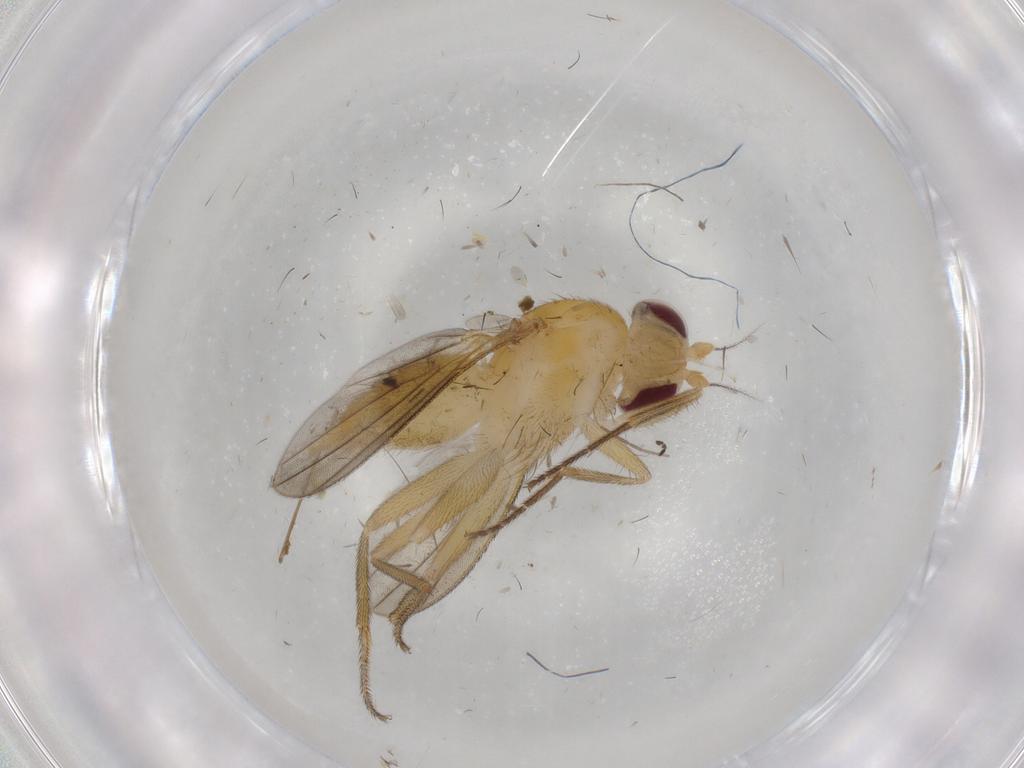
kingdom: Animalia
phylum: Arthropoda
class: Insecta
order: Diptera
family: Clusiidae
